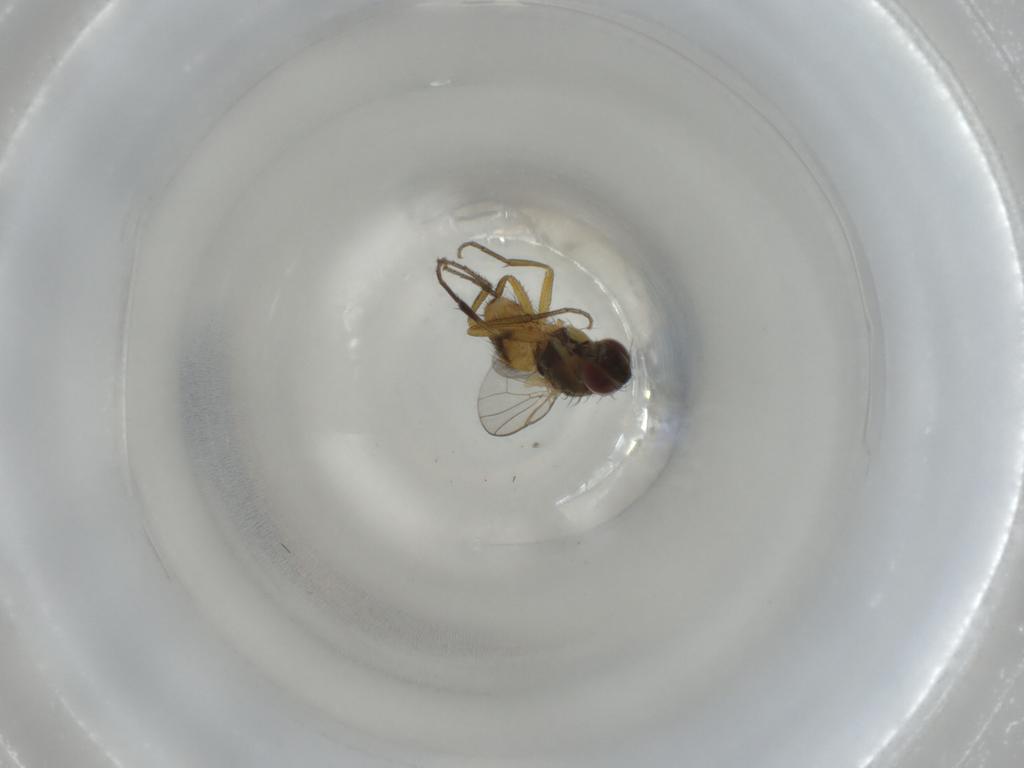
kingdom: Animalia
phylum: Arthropoda
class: Insecta
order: Diptera
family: Muscidae
